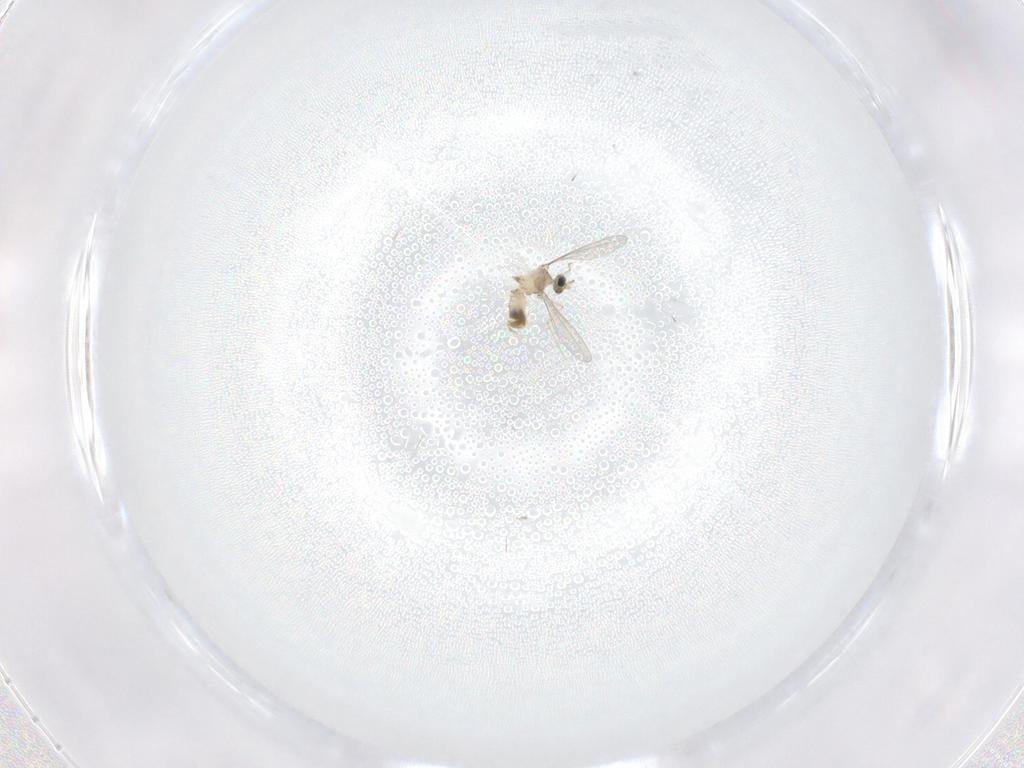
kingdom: Animalia
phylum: Arthropoda
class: Insecta
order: Diptera
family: Cecidomyiidae
